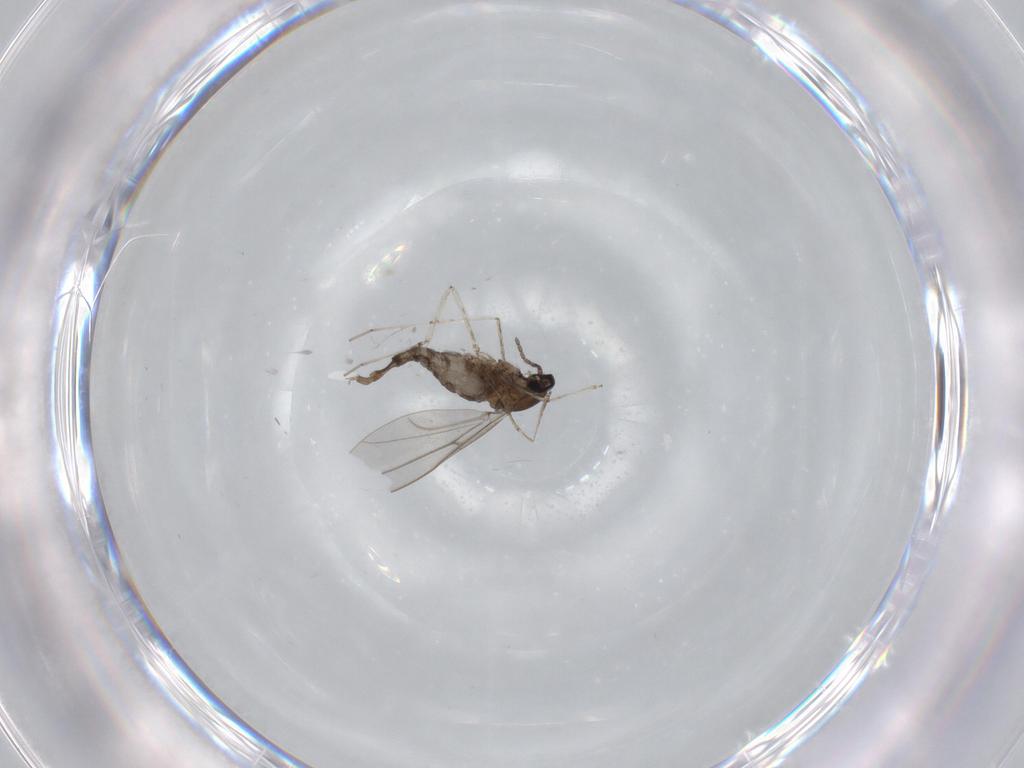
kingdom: Animalia
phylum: Arthropoda
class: Insecta
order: Diptera
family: Cecidomyiidae
